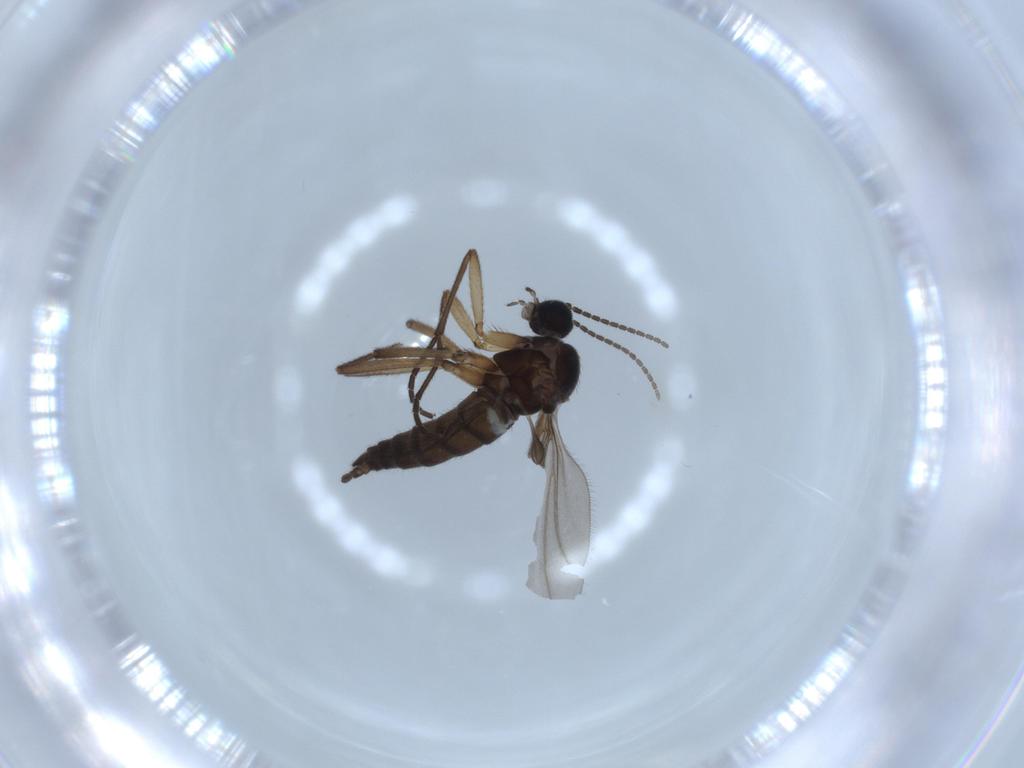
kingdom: Animalia
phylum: Arthropoda
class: Insecta
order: Diptera
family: Sciaridae
